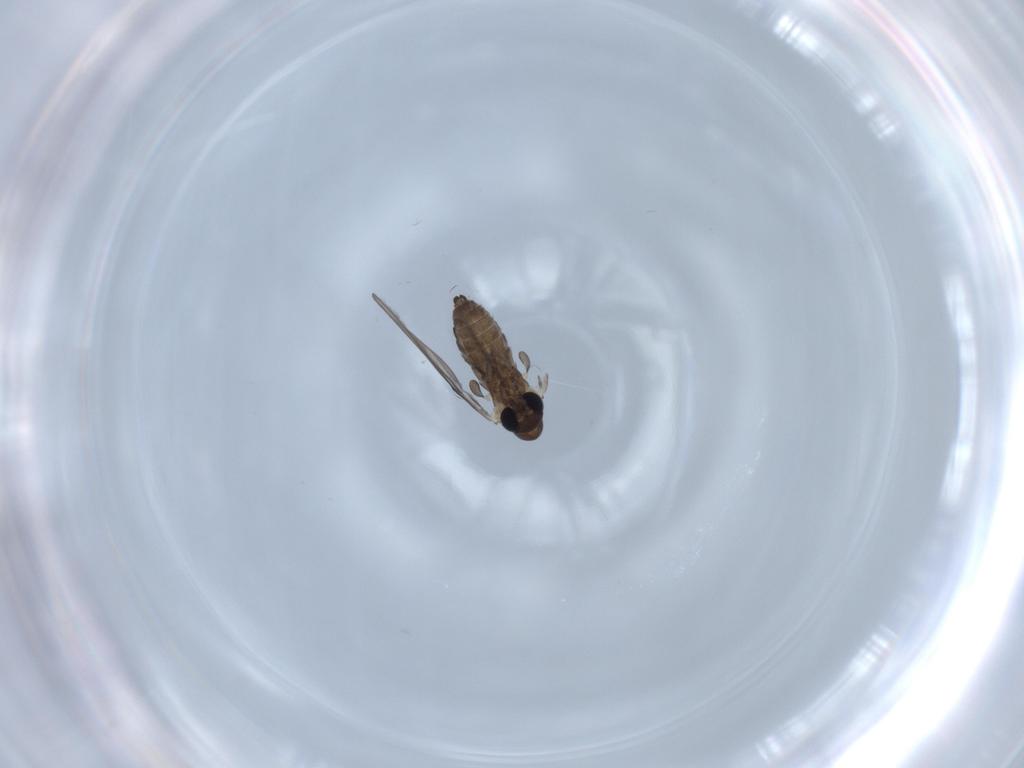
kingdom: Animalia
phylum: Arthropoda
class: Insecta
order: Diptera
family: Psychodidae
